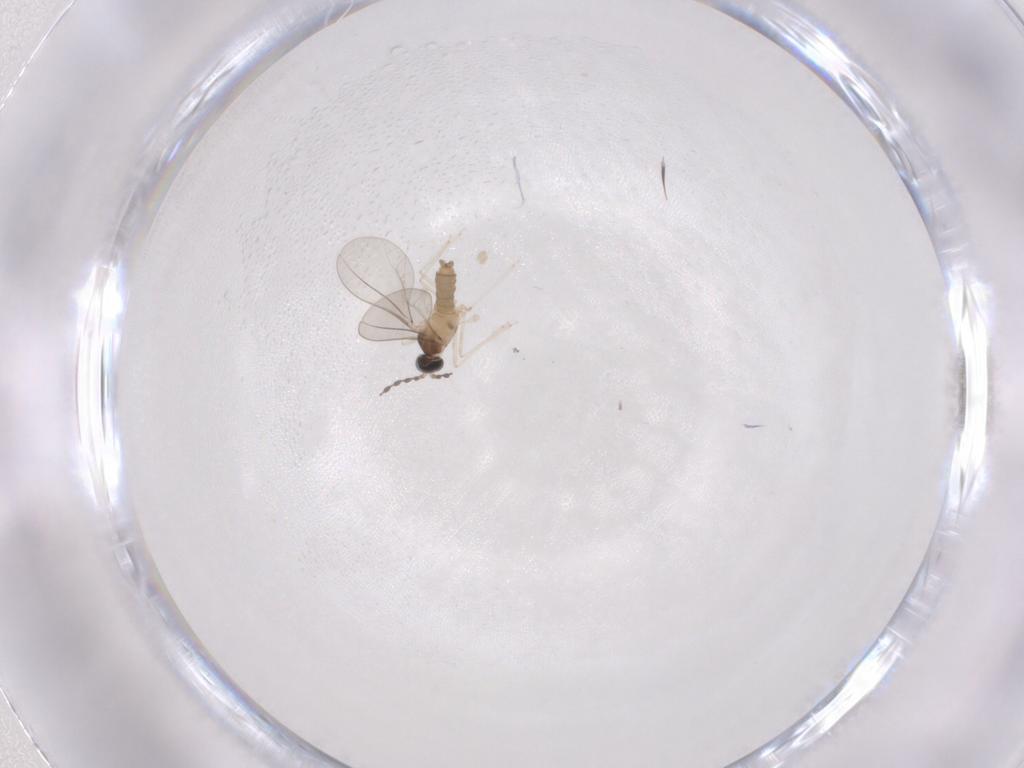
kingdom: Animalia
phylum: Arthropoda
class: Insecta
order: Diptera
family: Cecidomyiidae
